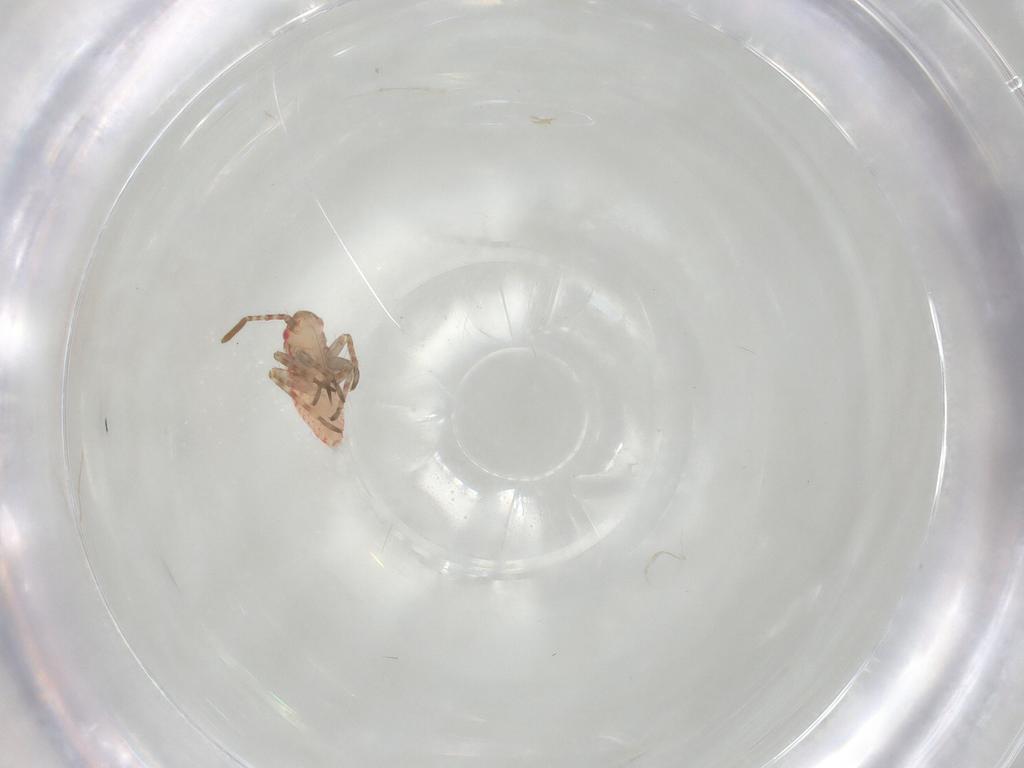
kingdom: Animalia
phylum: Arthropoda
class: Insecta
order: Hemiptera
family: Miridae
